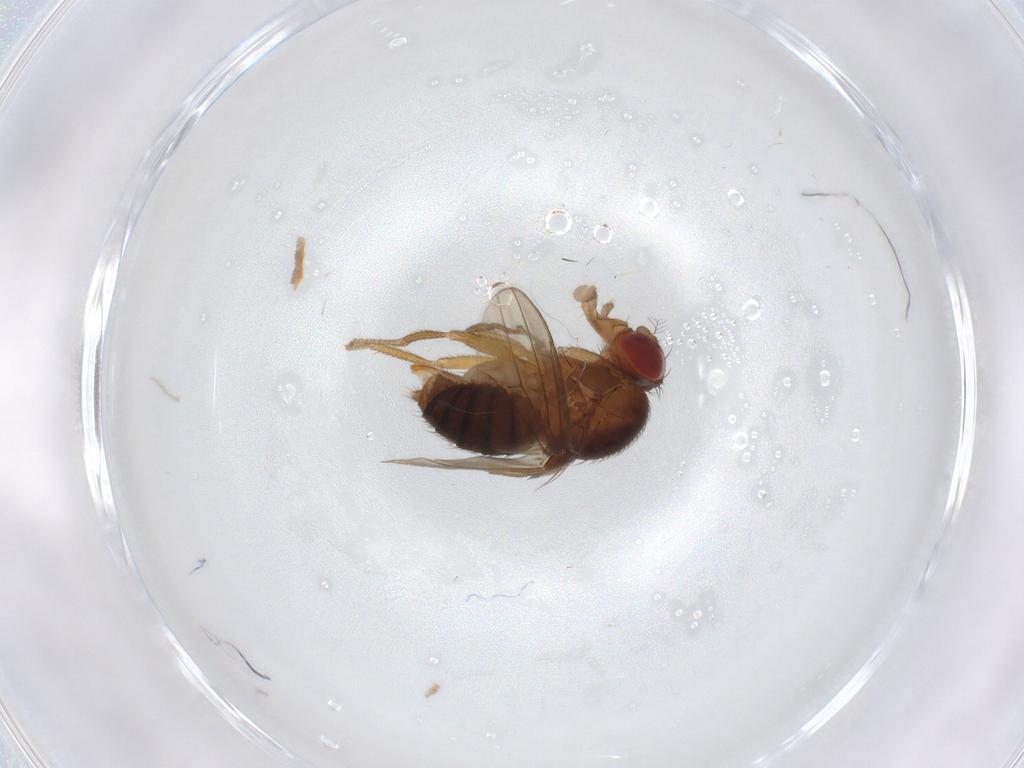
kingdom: Animalia
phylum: Arthropoda
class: Insecta
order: Diptera
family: Drosophilidae
